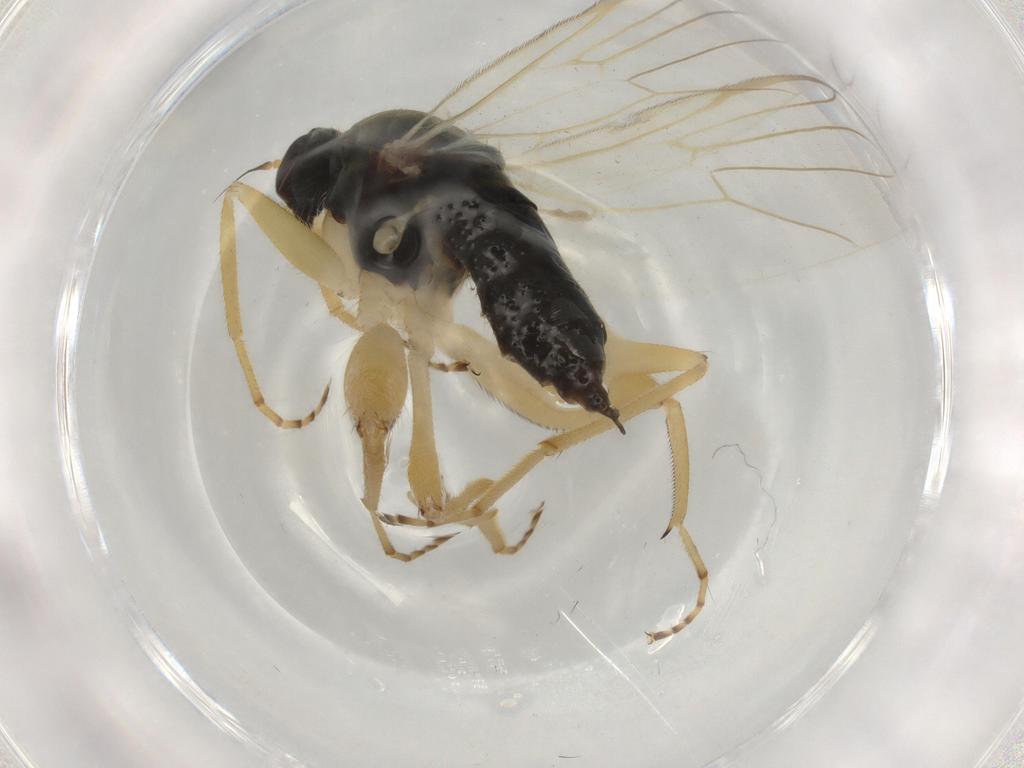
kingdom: Animalia
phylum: Arthropoda
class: Insecta
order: Diptera
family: Hybotidae
